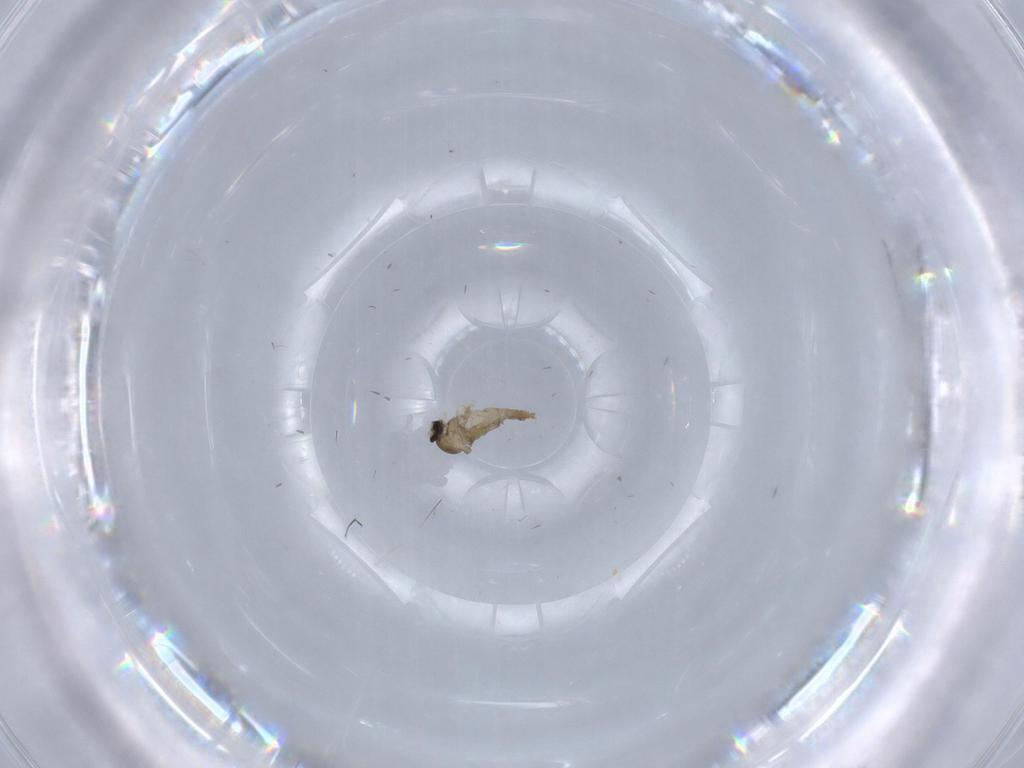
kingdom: Animalia
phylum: Arthropoda
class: Insecta
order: Diptera
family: Cecidomyiidae
